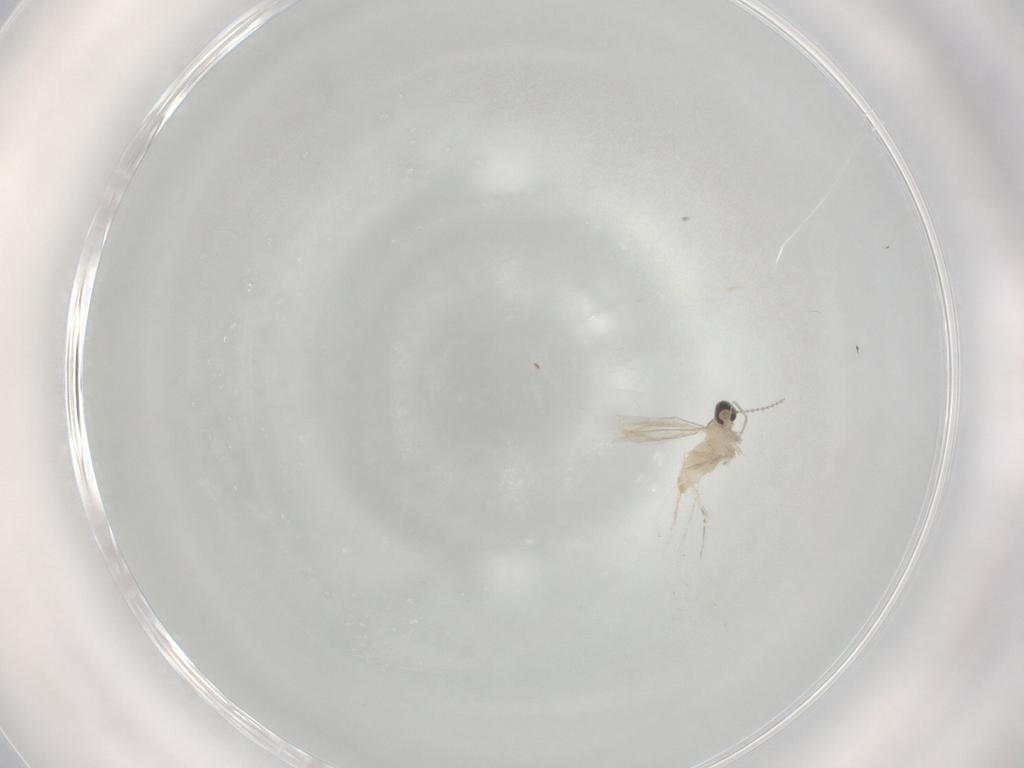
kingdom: Animalia
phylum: Arthropoda
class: Insecta
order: Diptera
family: Cecidomyiidae
